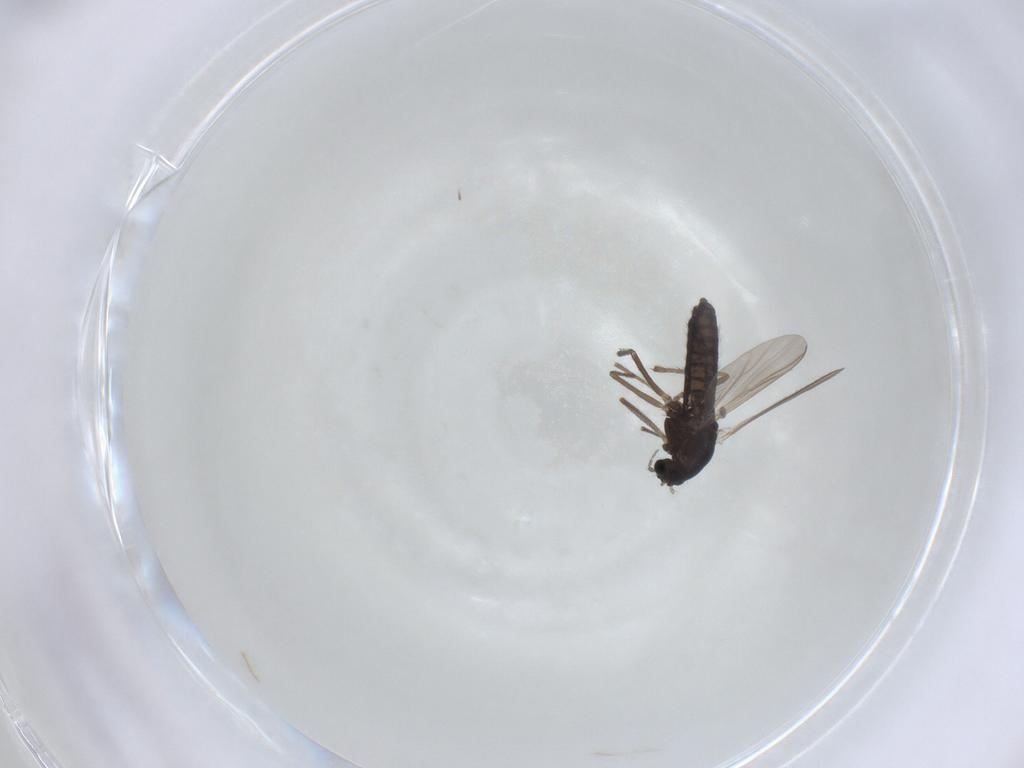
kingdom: Animalia
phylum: Arthropoda
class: Insecta
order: Diptera
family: Chironomidae
